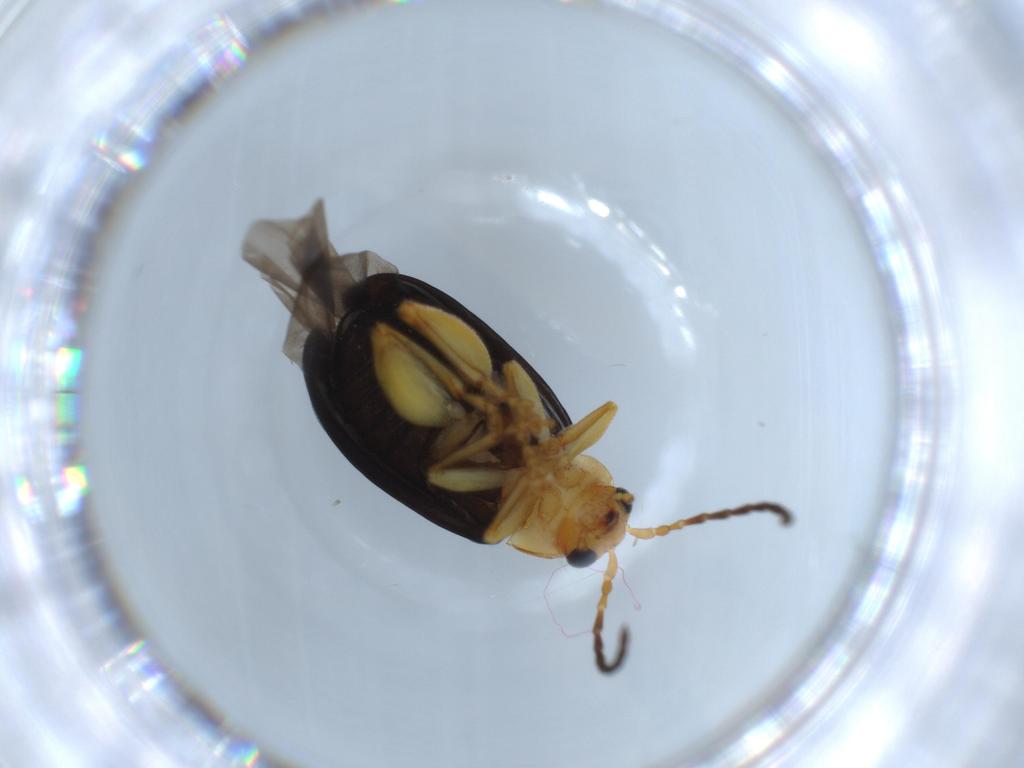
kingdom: Animalia
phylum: Arthropoda
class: Insecta
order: Coleoptera
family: Chrysomelidae
